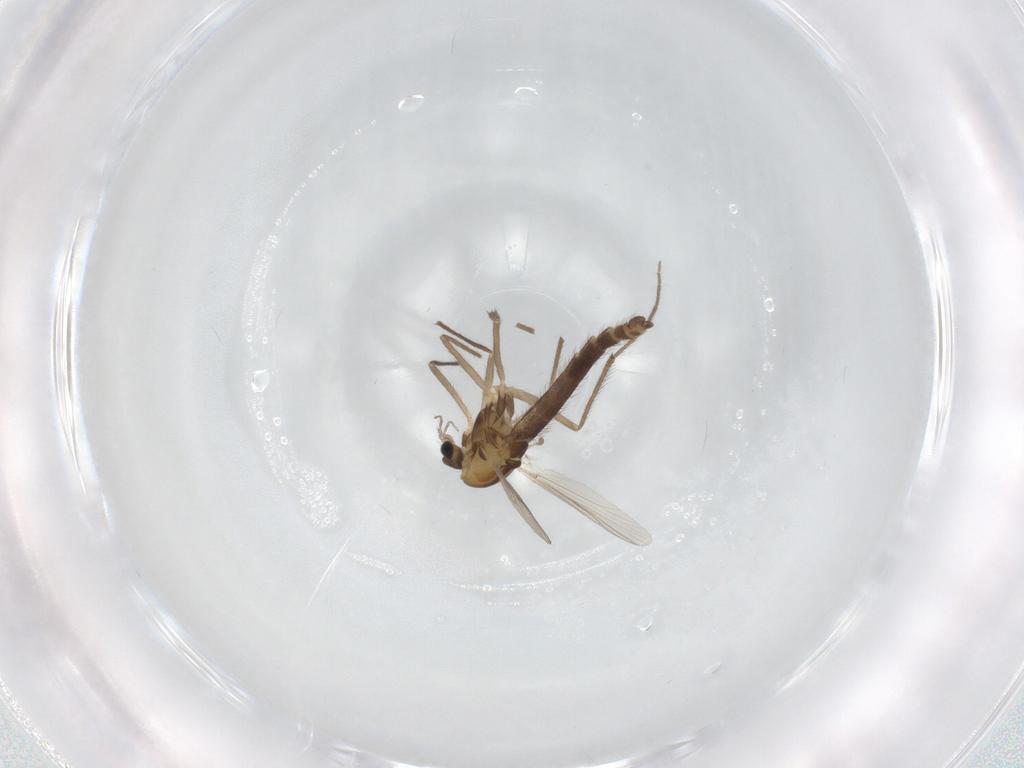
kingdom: Animalia
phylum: Arthropoda
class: Insecta
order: Diptera
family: Chironomidae
